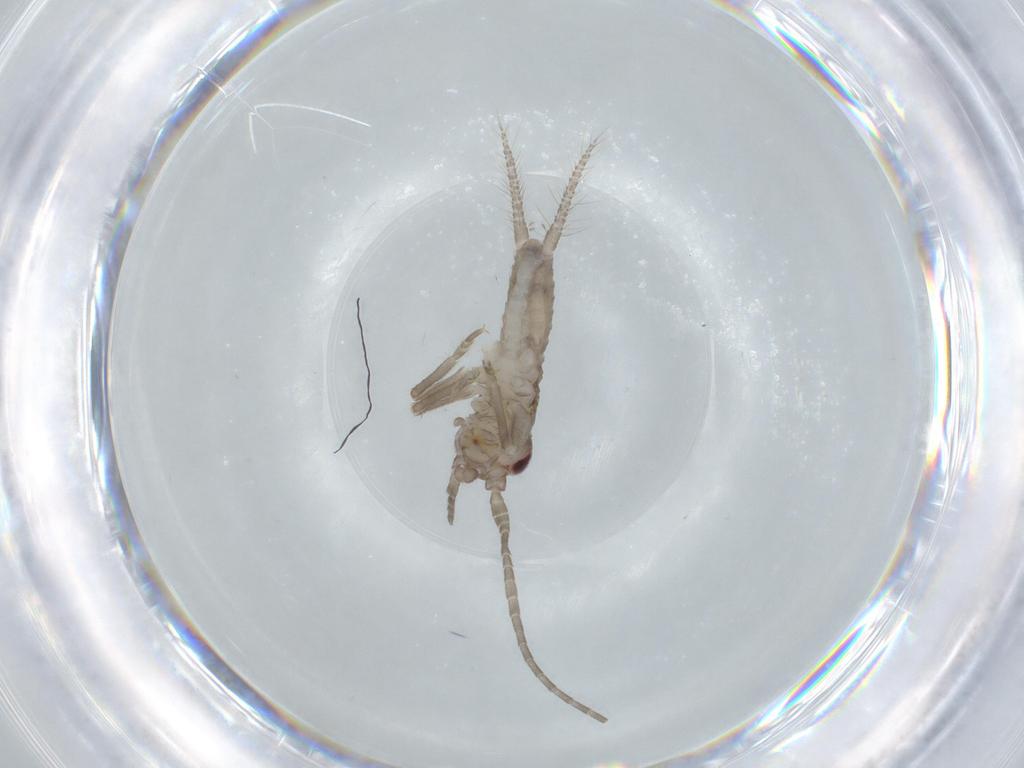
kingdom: Animalia
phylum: Arthropoda
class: Insecta
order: Orthoptera
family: Gryllidae
